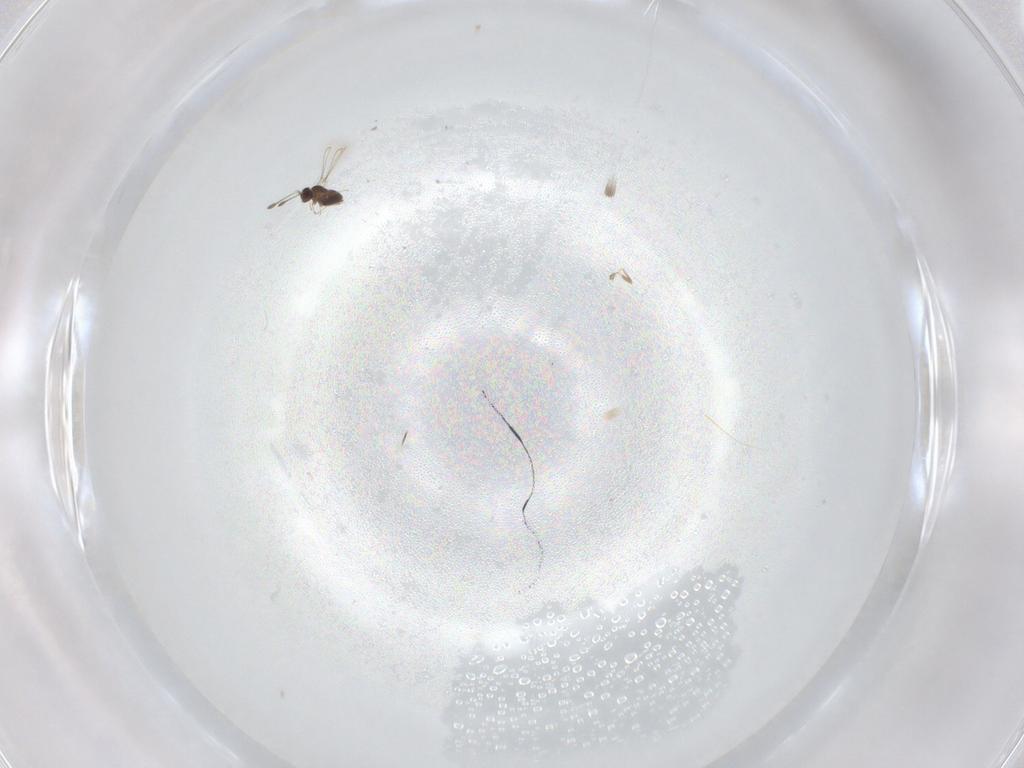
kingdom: Animalia
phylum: Arthropoda
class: Insecta
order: Hymenoptera
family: Mymaridae
